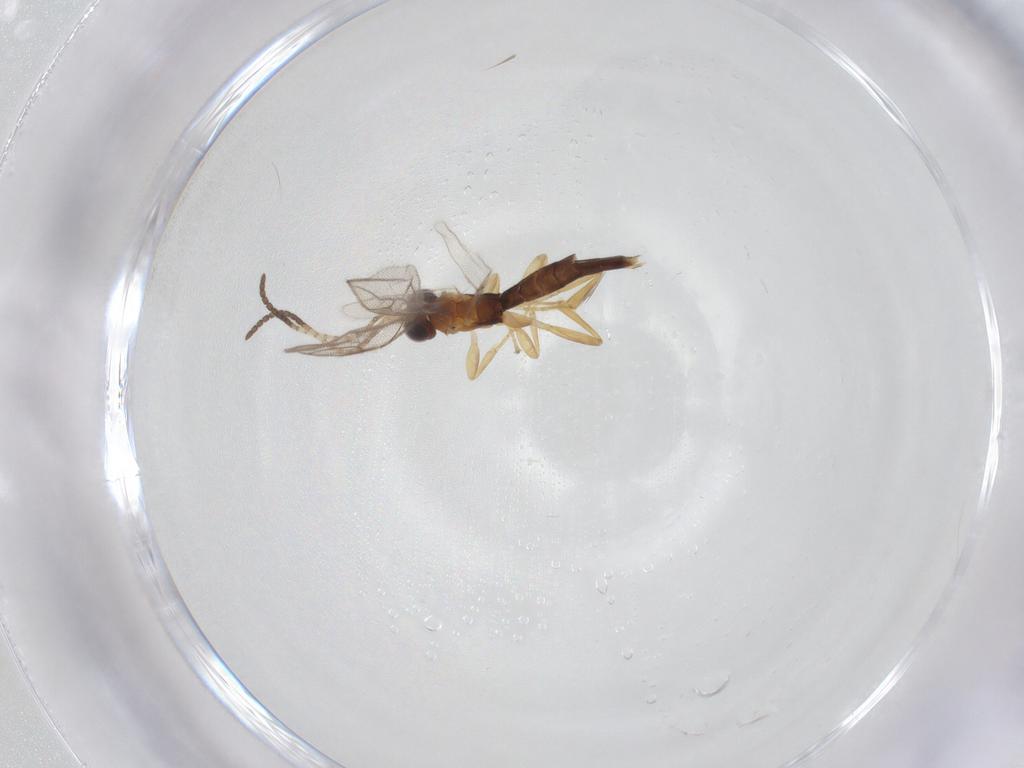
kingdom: Animalia
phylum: Arthropoda
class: Insecta
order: Hymenoptera
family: Ichneumonidae
